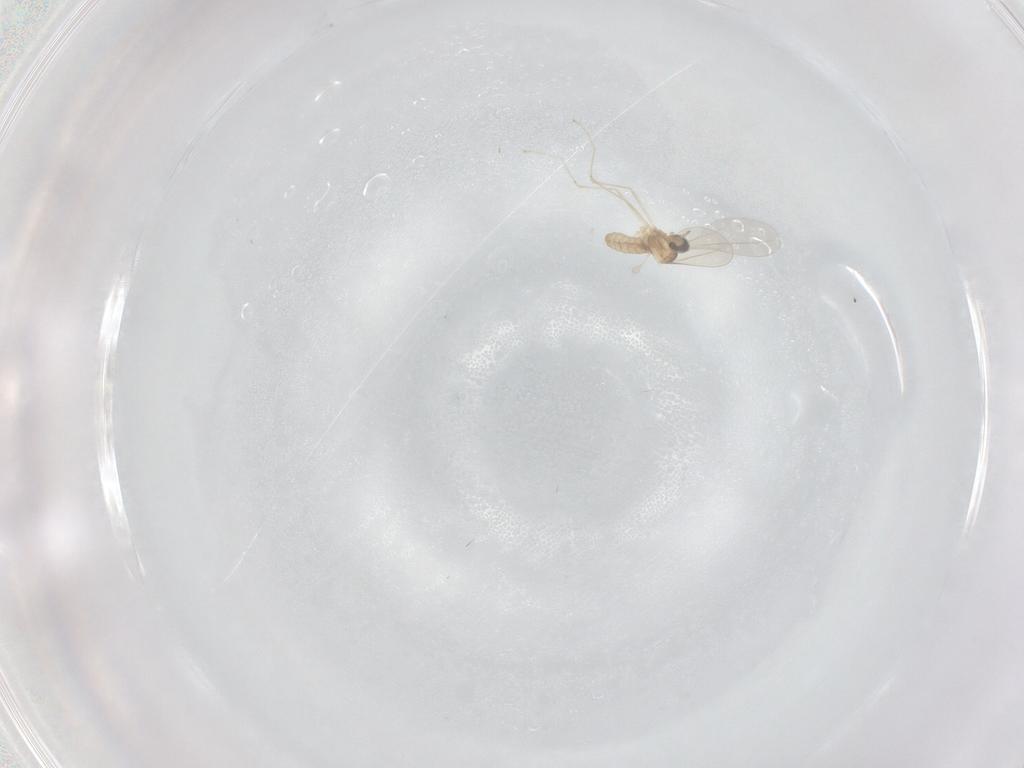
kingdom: Animalia
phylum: Arthropoda
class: Insecta
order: Diptera
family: Cecidomyiidae
